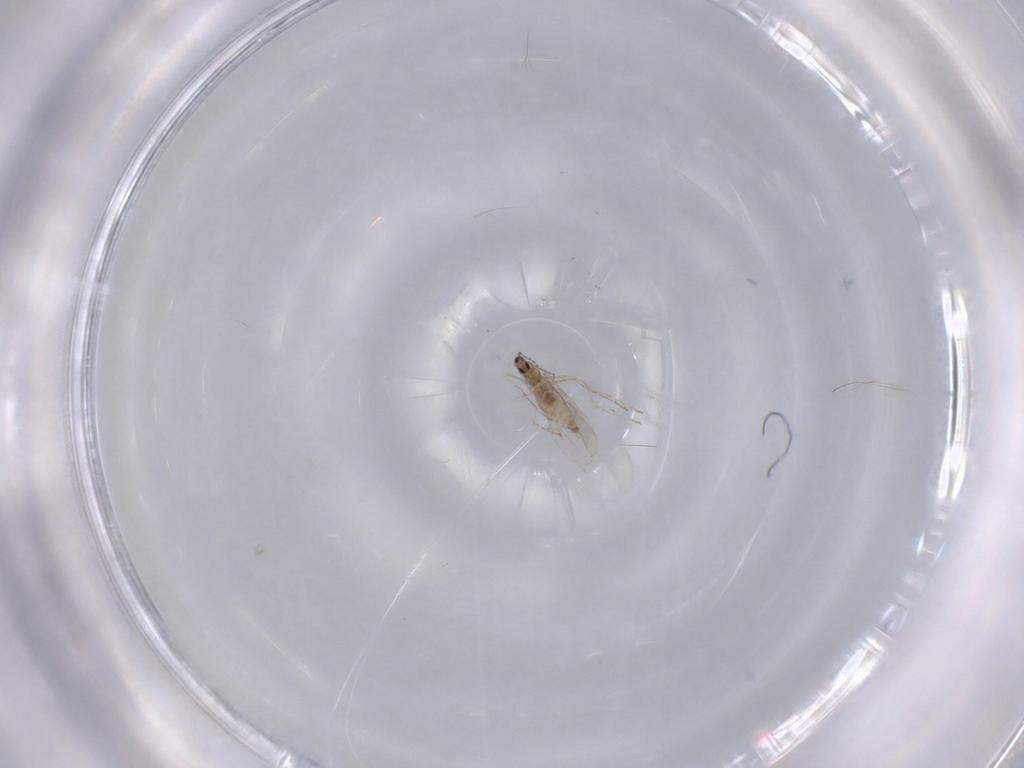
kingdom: Animalia
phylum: Arthropoda
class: Insecta
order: Diptera
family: Cecidomyiidae
